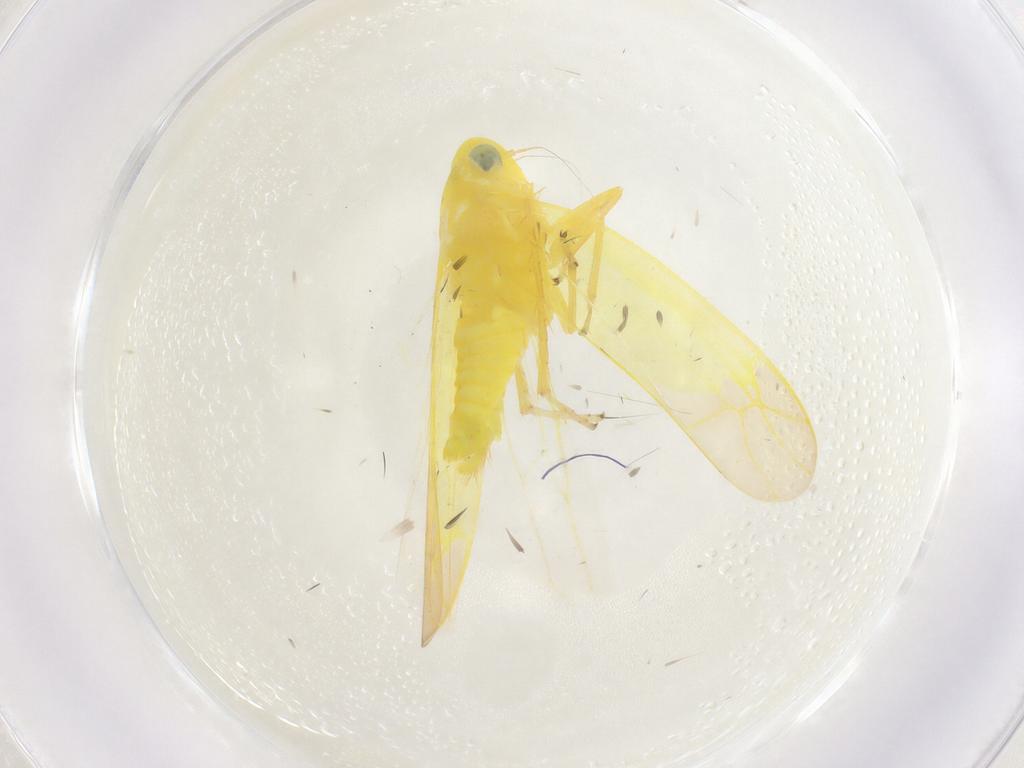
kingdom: Animalia
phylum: Arthropoda
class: Insecta
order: Hemiptera
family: Cicadellidae
